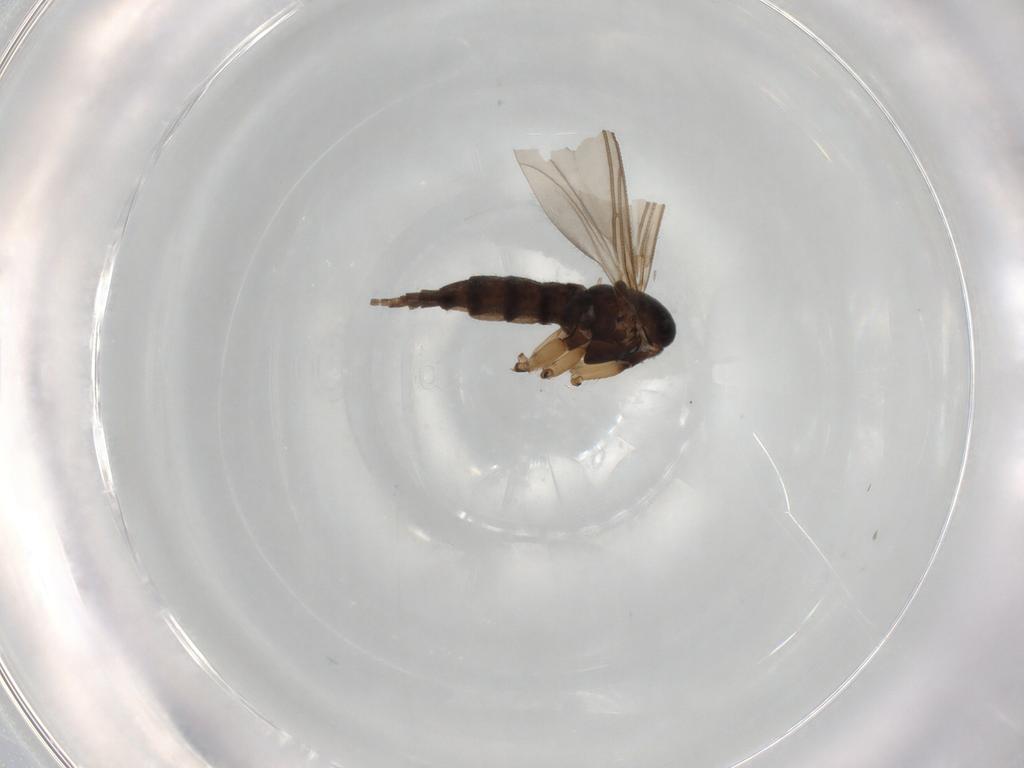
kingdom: Animalia
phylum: Arthropoda
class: Insecta
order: Diptera
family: Sciaridae
